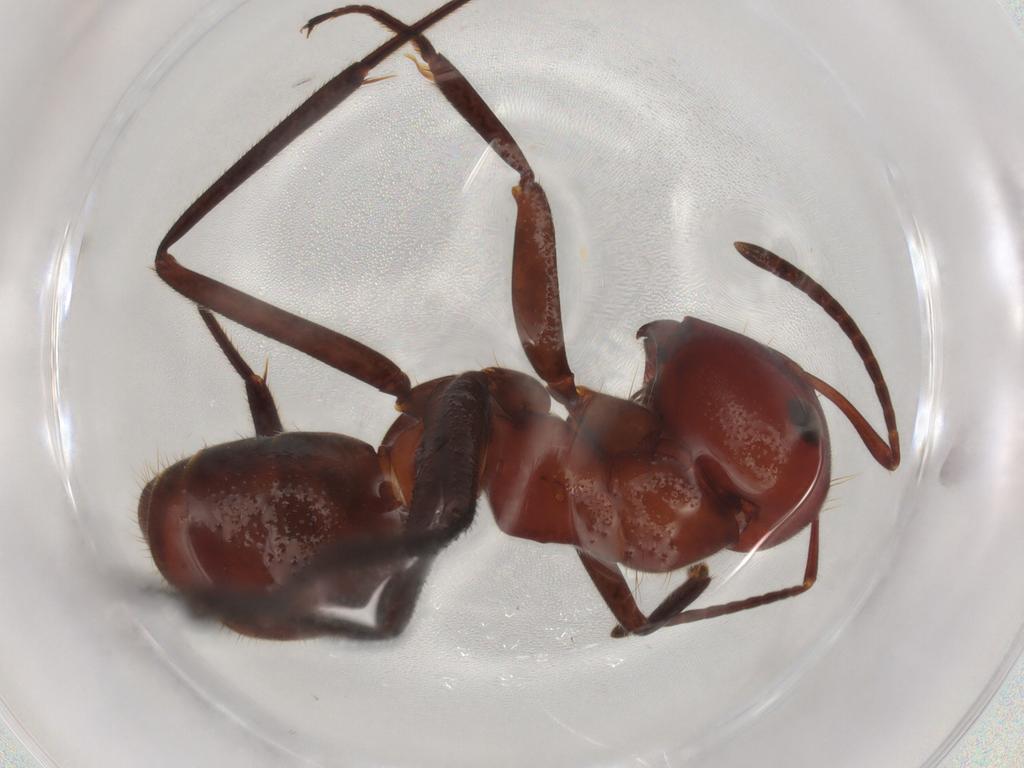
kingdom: Animalia
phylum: Arthropoda
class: Insecta
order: Hymenoptera
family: Formicidae
